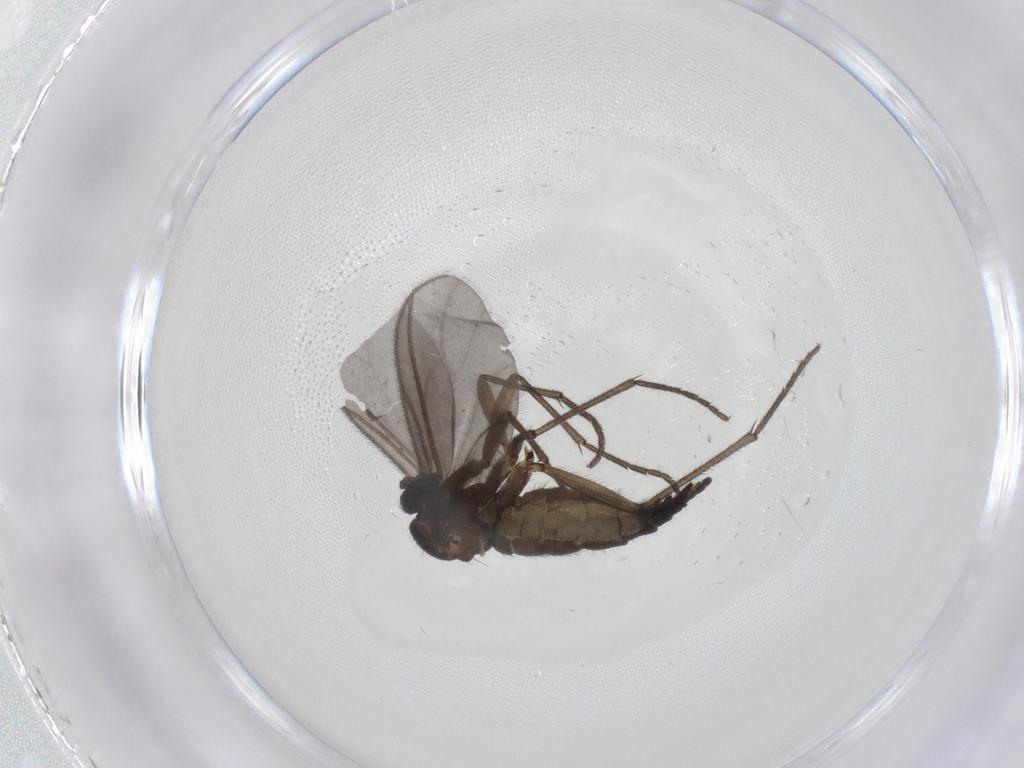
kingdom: Animalia
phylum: Arthropoda
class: Insecta
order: Diptera
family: Sciaridae
